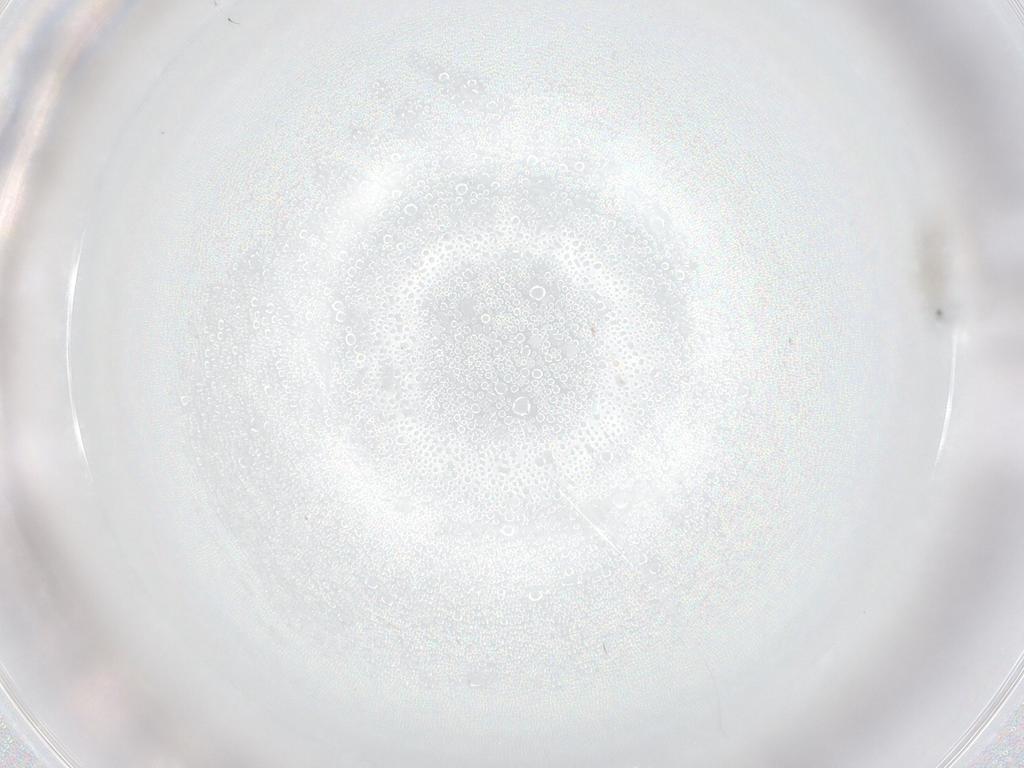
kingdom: Animalia
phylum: Arthropoda
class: Insecta
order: Diptera
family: Cecidomyiidae
